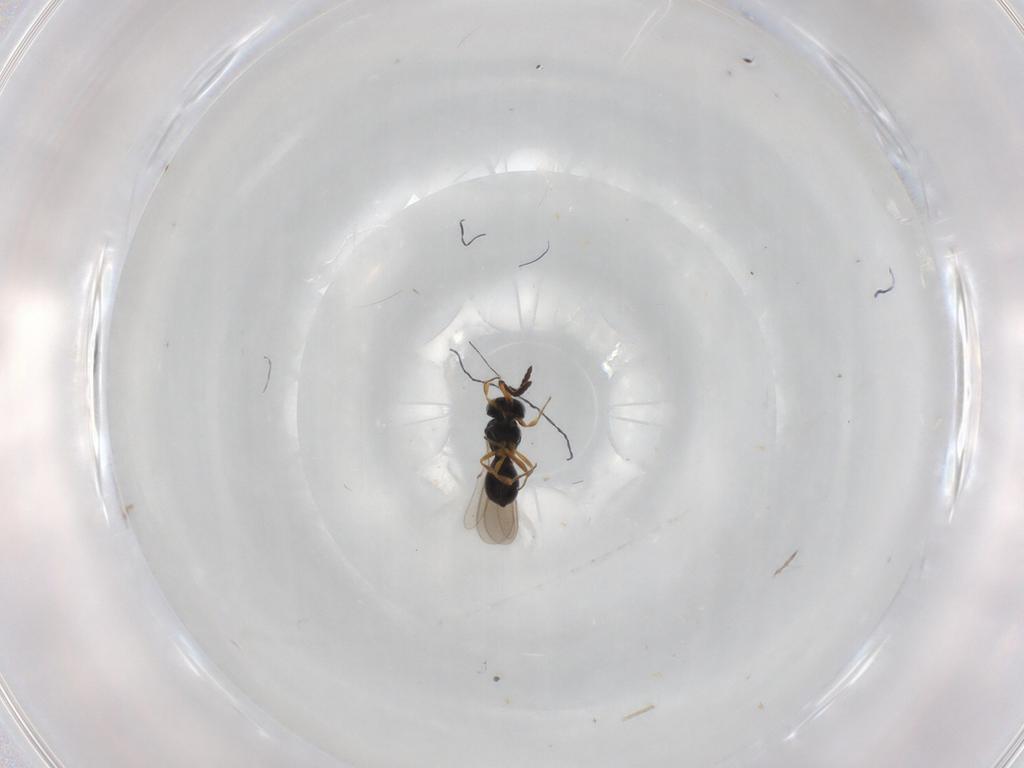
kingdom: Animalia
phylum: Arthropoda
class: Insecta
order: Hymenoptera
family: Scelionidae
